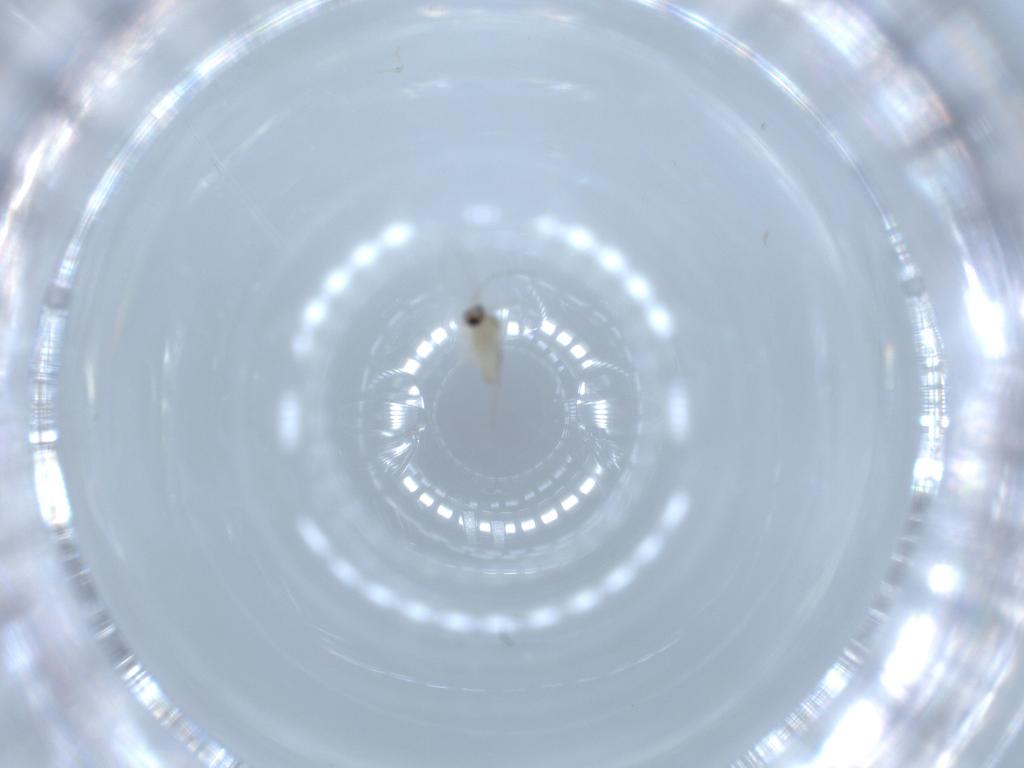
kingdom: Animalia
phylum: Arthropoda
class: Insecta
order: Diptera
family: Cecidomyiidae
